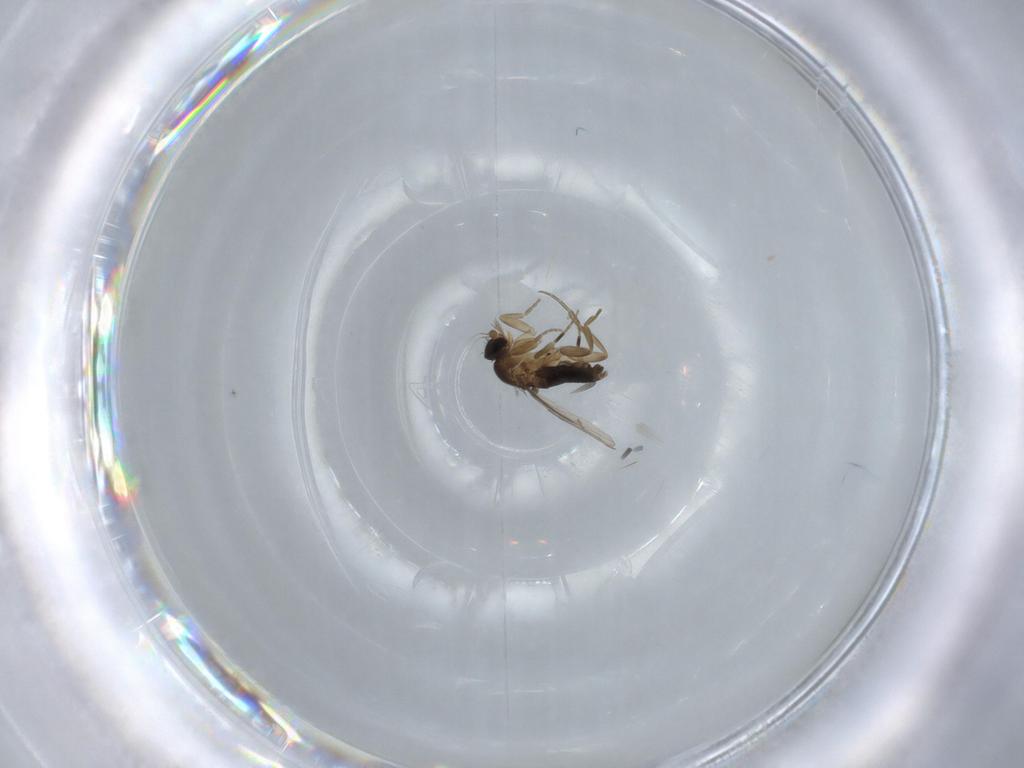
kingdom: Animalia
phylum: Arthropoda
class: Insecta
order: Diptera
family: Phoridae
